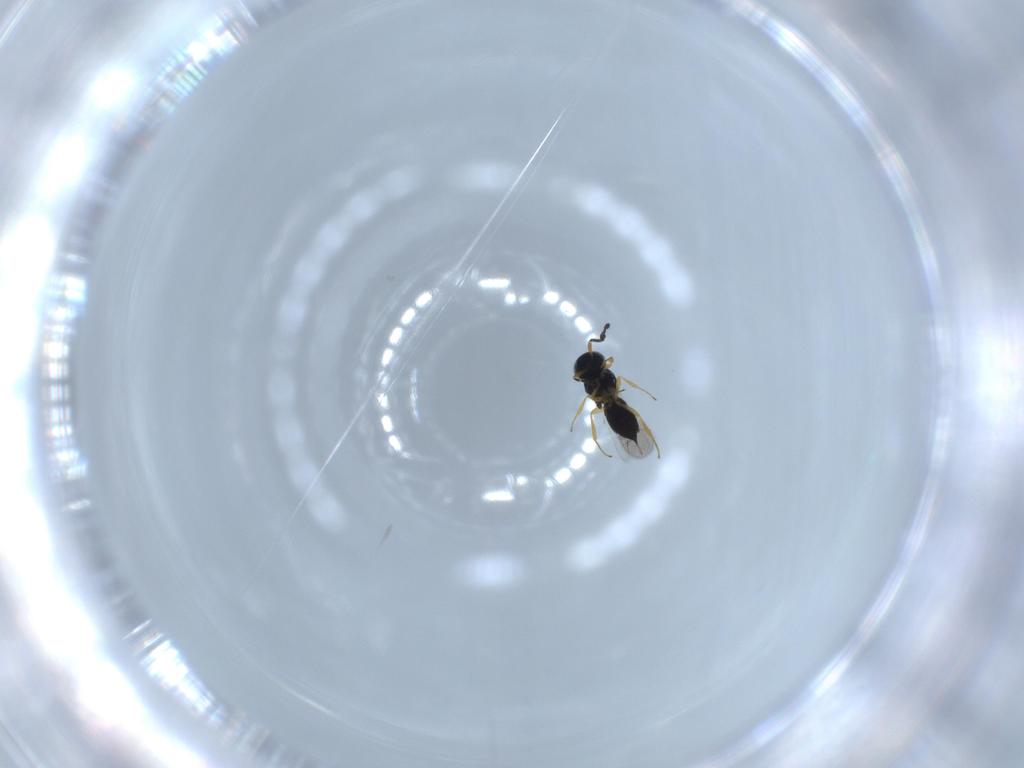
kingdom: Animalia
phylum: Arthropoda
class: Insecta
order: Hymenoptera
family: Scelionidae
